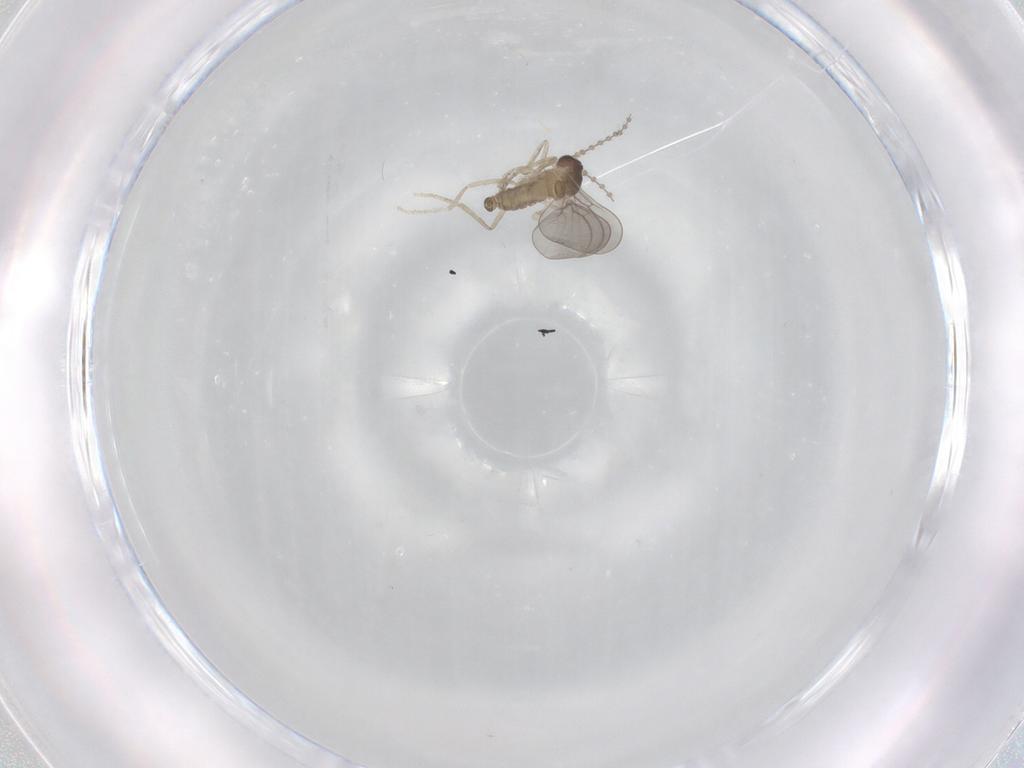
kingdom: Animalia
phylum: Arthropoda
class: Insecta
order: Diptera
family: Cecidomyiidae
